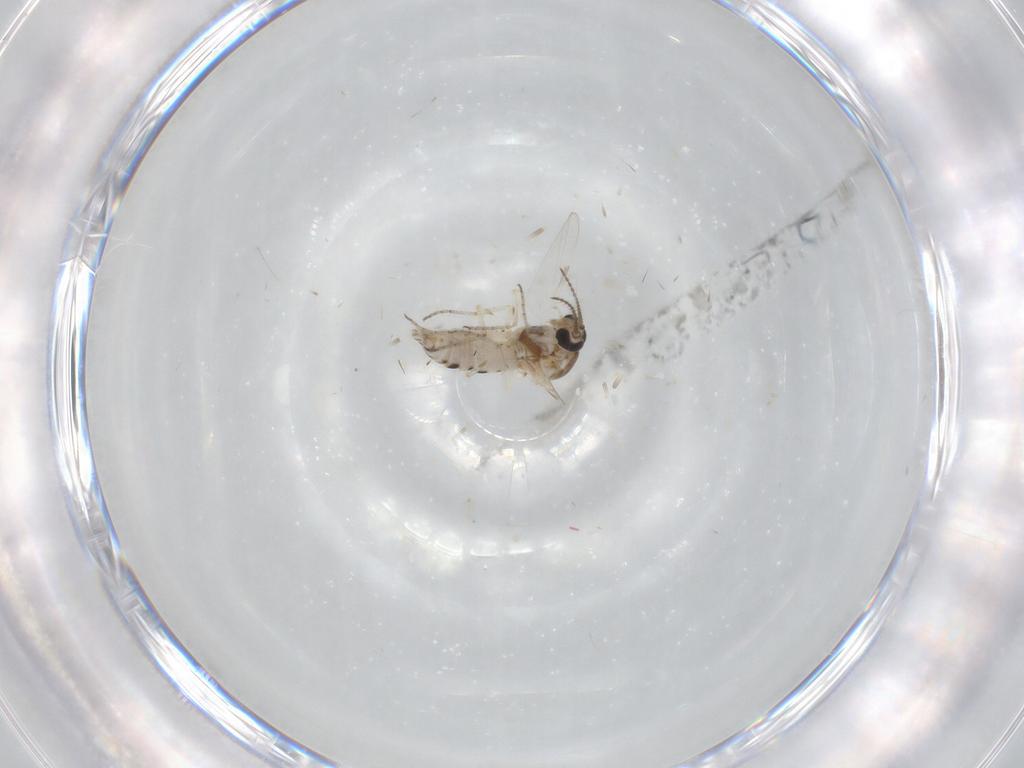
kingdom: Animalia
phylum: Arthropoda
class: Insecta
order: Diptera
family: Ceratopogonidae
